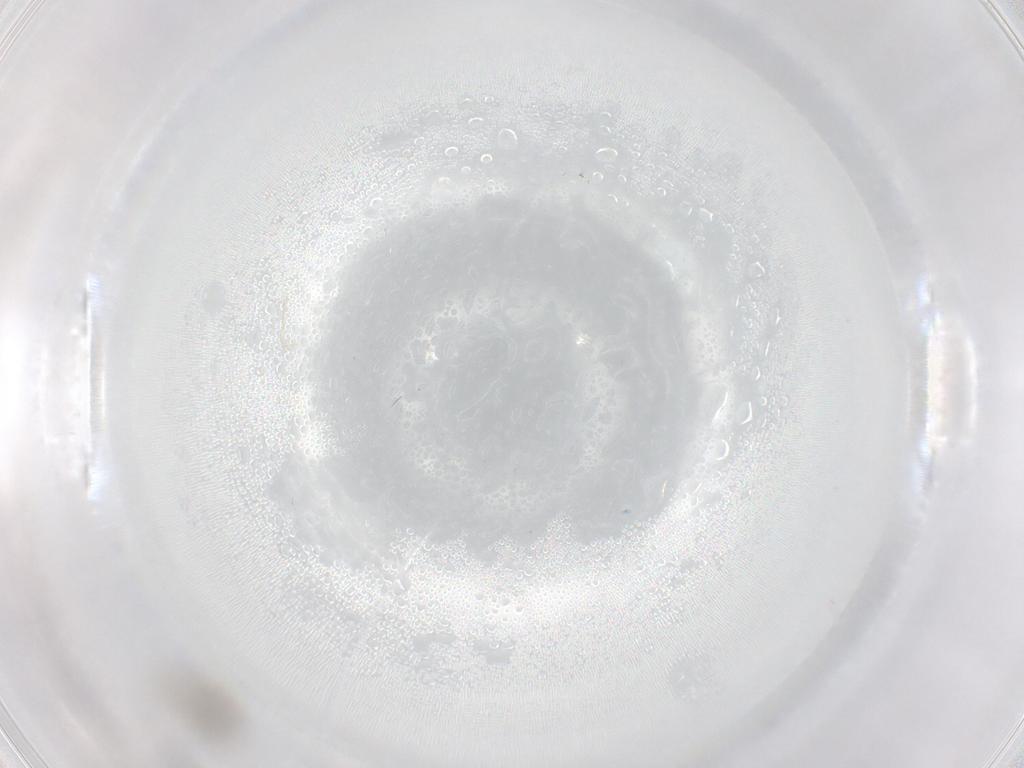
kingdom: Animalia
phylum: Arthropoda
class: Insecta
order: Diptera
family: Chironomidae
